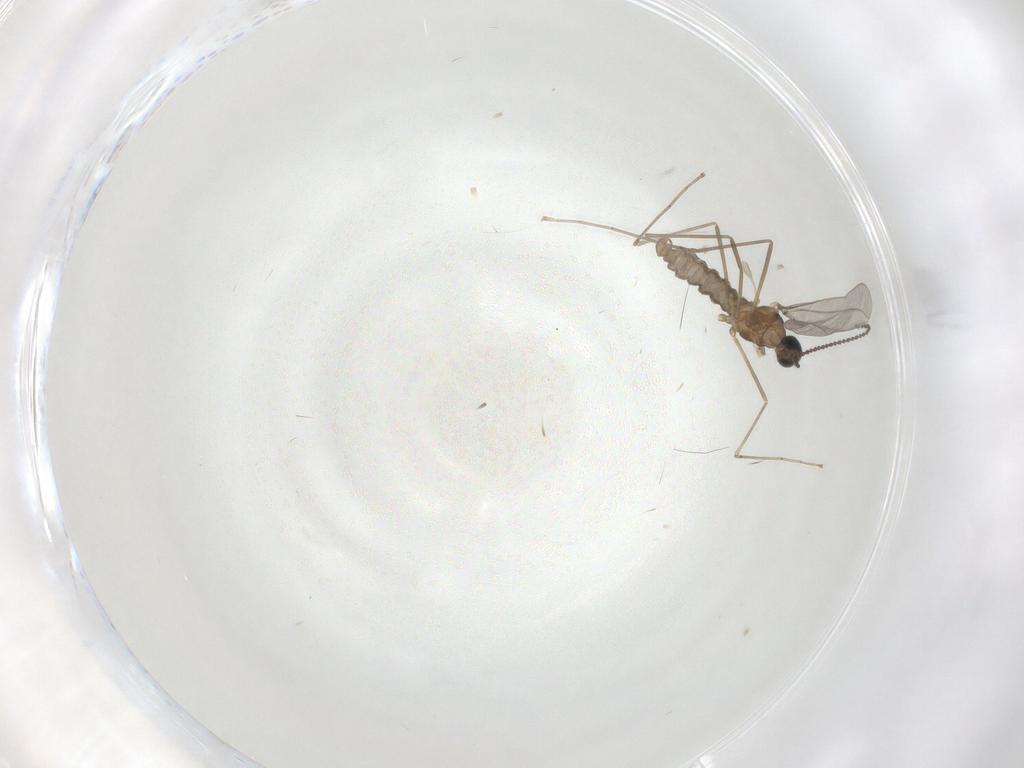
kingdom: Animalia
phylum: Arthropoda
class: Insecta
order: Diptera
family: Cecidomyiidae
